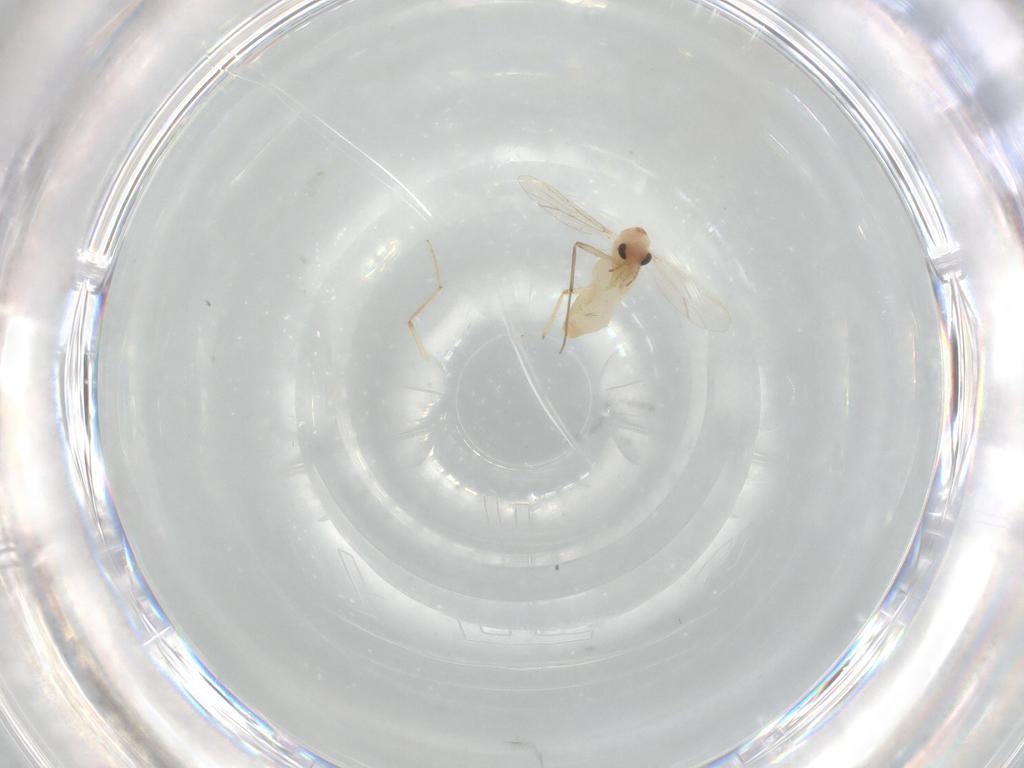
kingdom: Animalia
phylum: Arthropoda
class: Insecta
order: Diptera
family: Chironomidae
